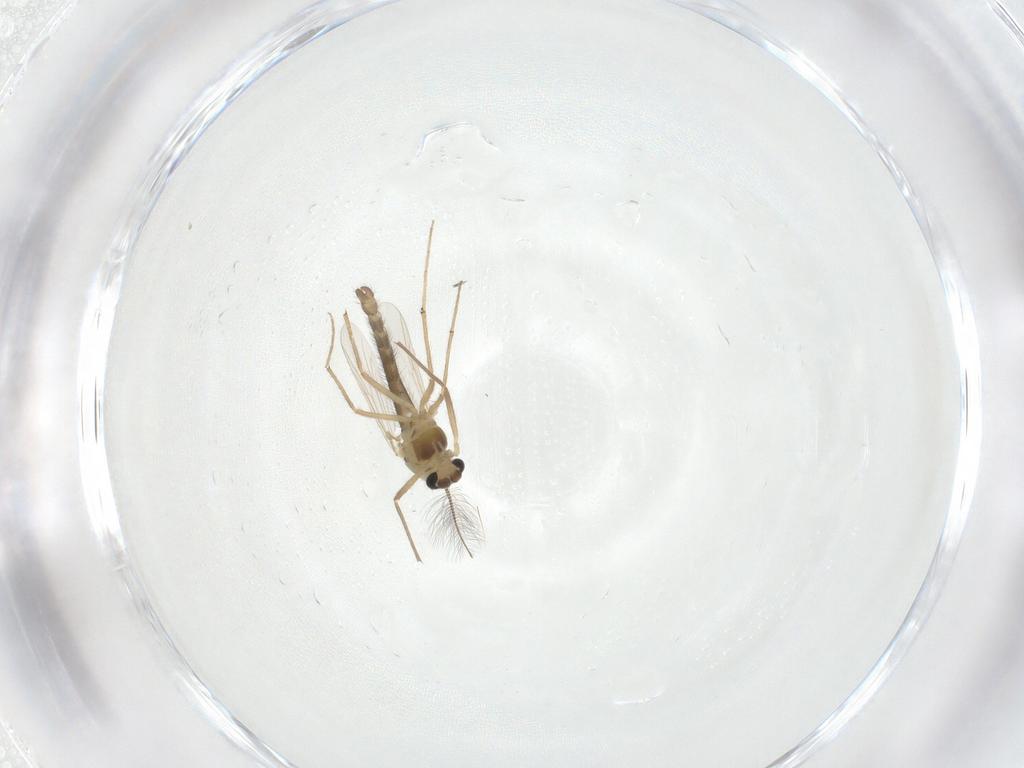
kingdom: Animalia
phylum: Arthropoda
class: Insecta
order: Diptera
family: Chironomidae
